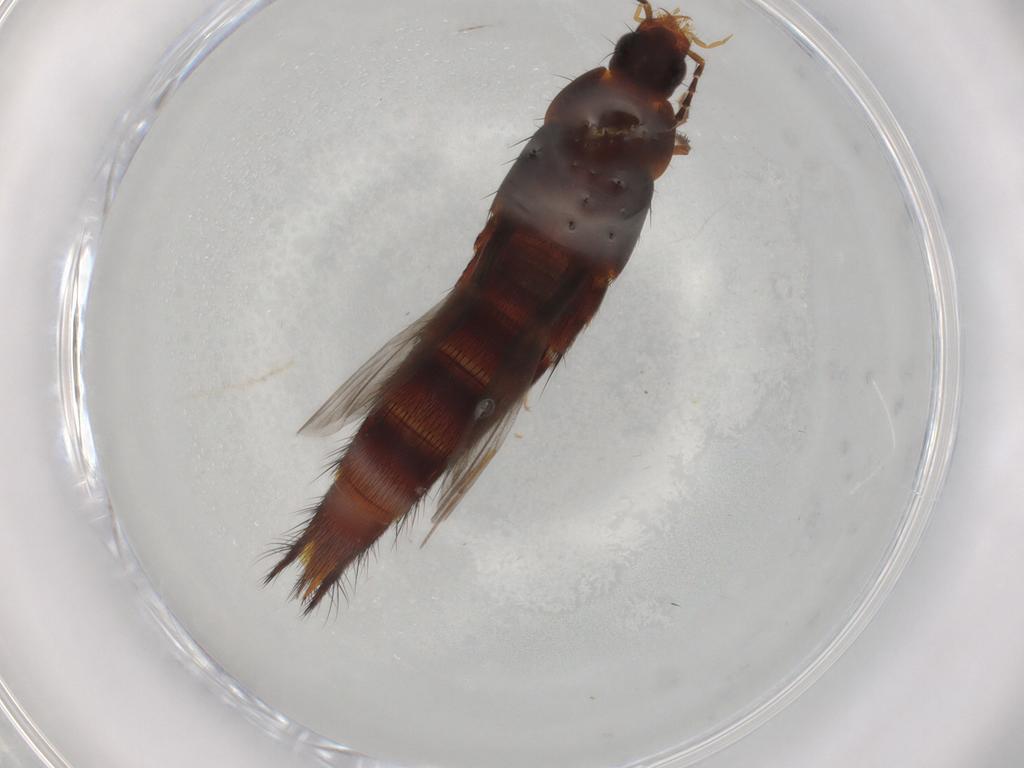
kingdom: Animalia
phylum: Arthropoda
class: Insecta
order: Coleoptera
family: Staphylinidae
